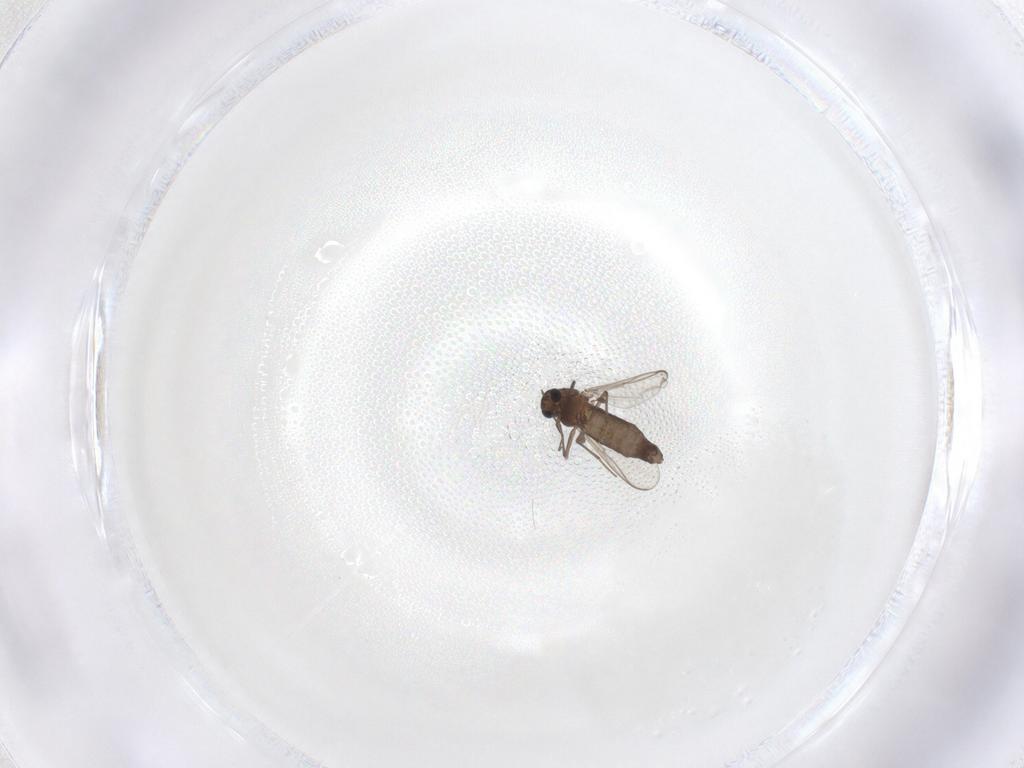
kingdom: Animalia
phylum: Arthropoda
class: Insecta
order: Diptera
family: Chironomidae
